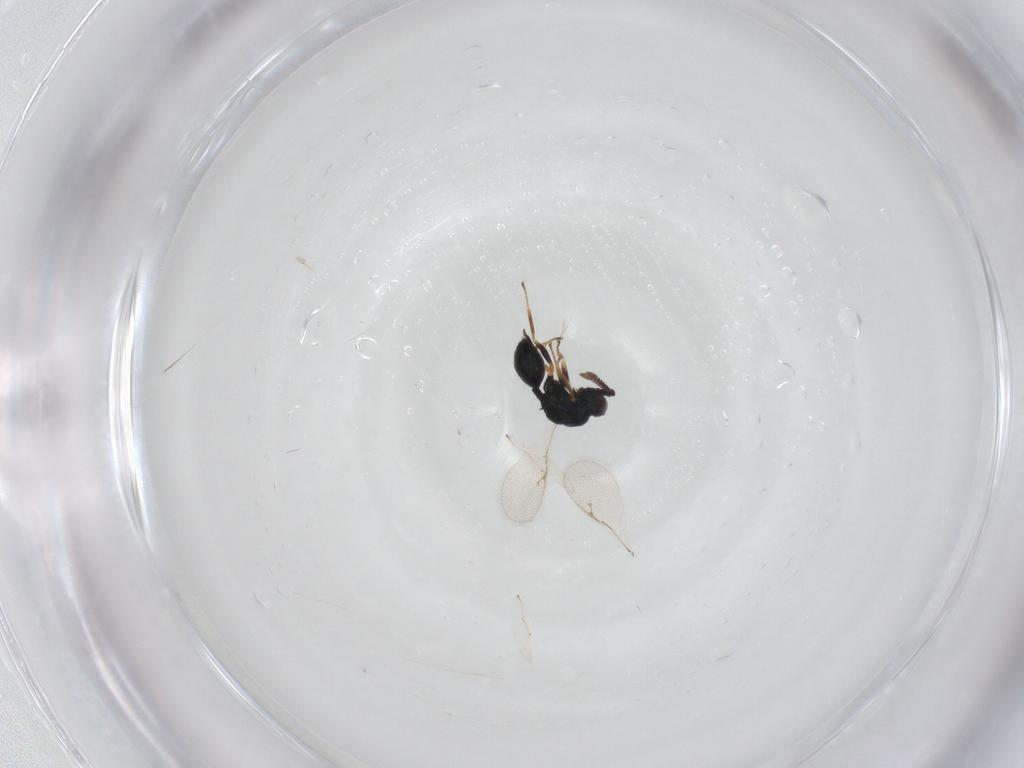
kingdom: Animalia
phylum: Arthropoda
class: Insecta
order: Hymenoptera
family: Chalcidoidea_incertae_sedis
